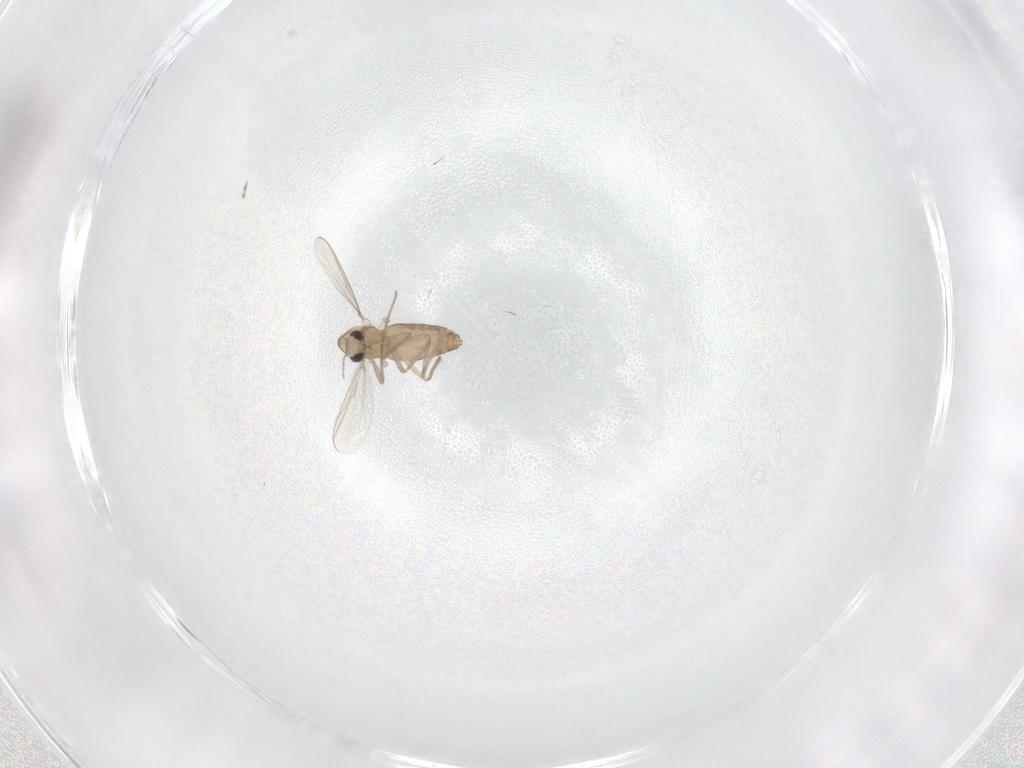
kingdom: Animalia
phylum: Arthropoda
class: Insecta
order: Diptera
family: Chironomidae
